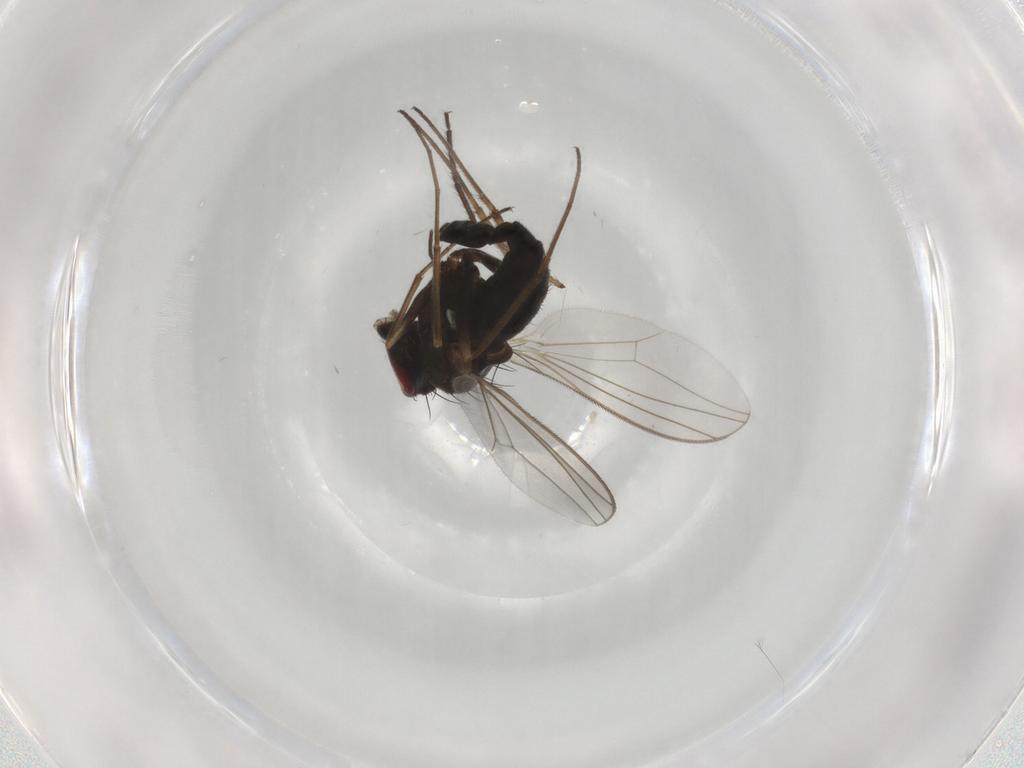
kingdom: Animalia
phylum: Arthropoda
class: Insecta
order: Diptera
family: Dolichopodidae
